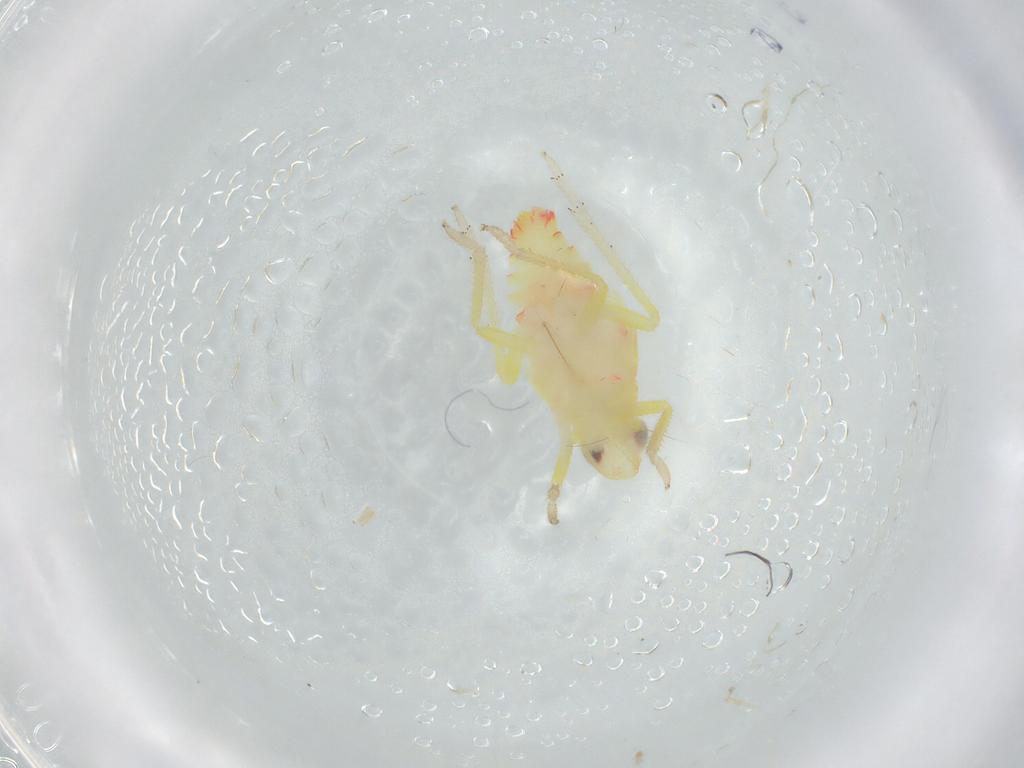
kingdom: Animalia
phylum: Arthropoda
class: Insecta
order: Hemiptera
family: Tropiduchidae
